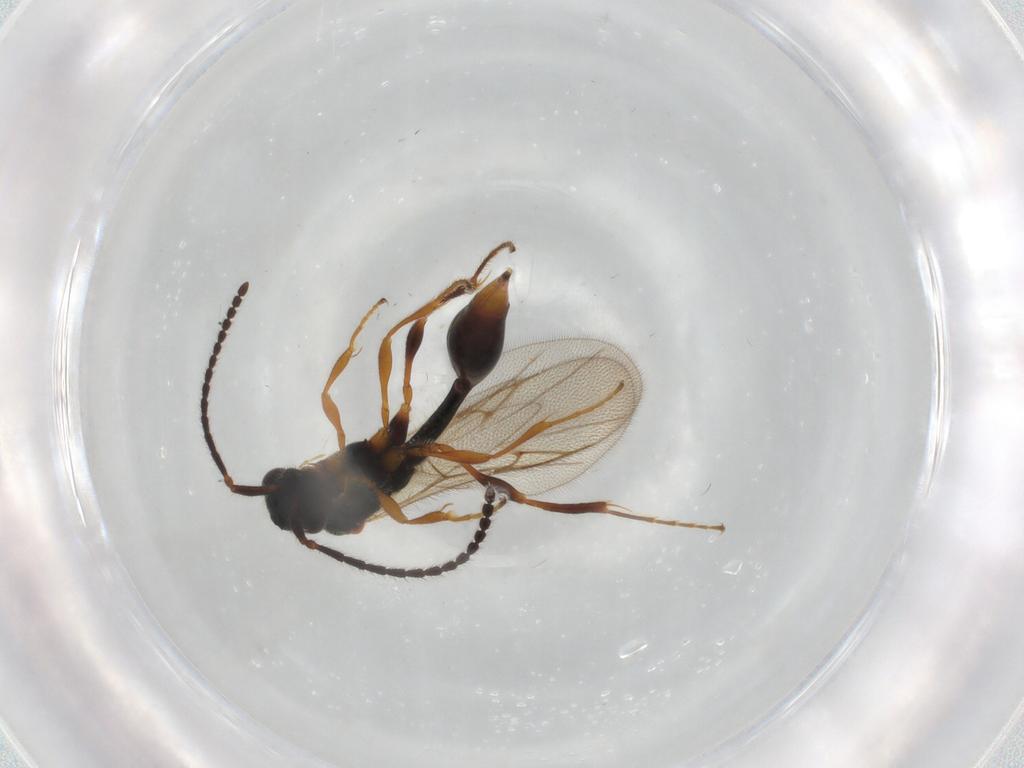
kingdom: Animalia
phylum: Arthropoda
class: Insecta
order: Hymenoptera
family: Diapriidae
